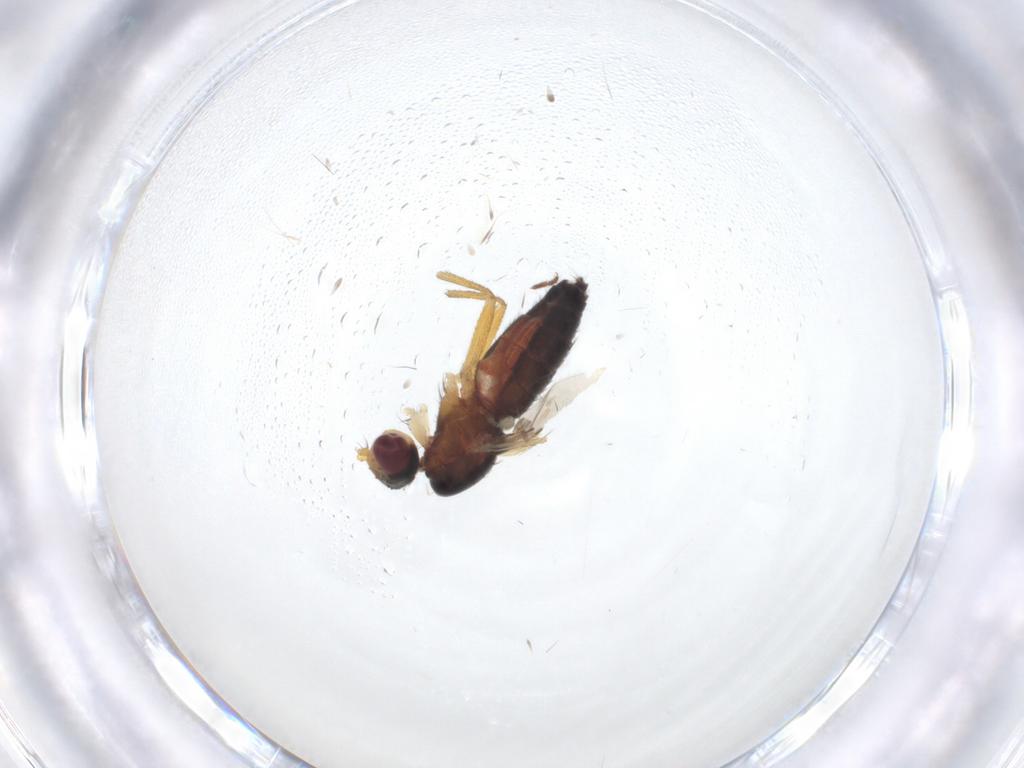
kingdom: Animalia
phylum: Arthropoda
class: Insecta
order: Diptera
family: Heleomyzidae
